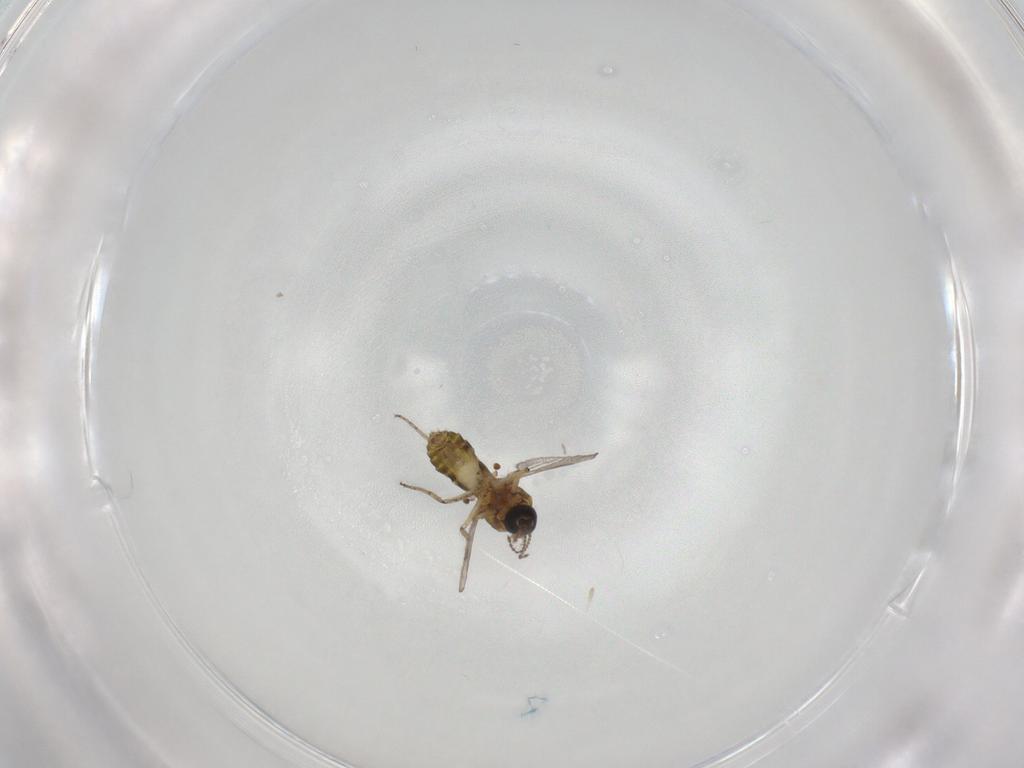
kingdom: Animalia
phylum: Arthropoda
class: Insecta
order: Diptera
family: Ceratopogonidae
